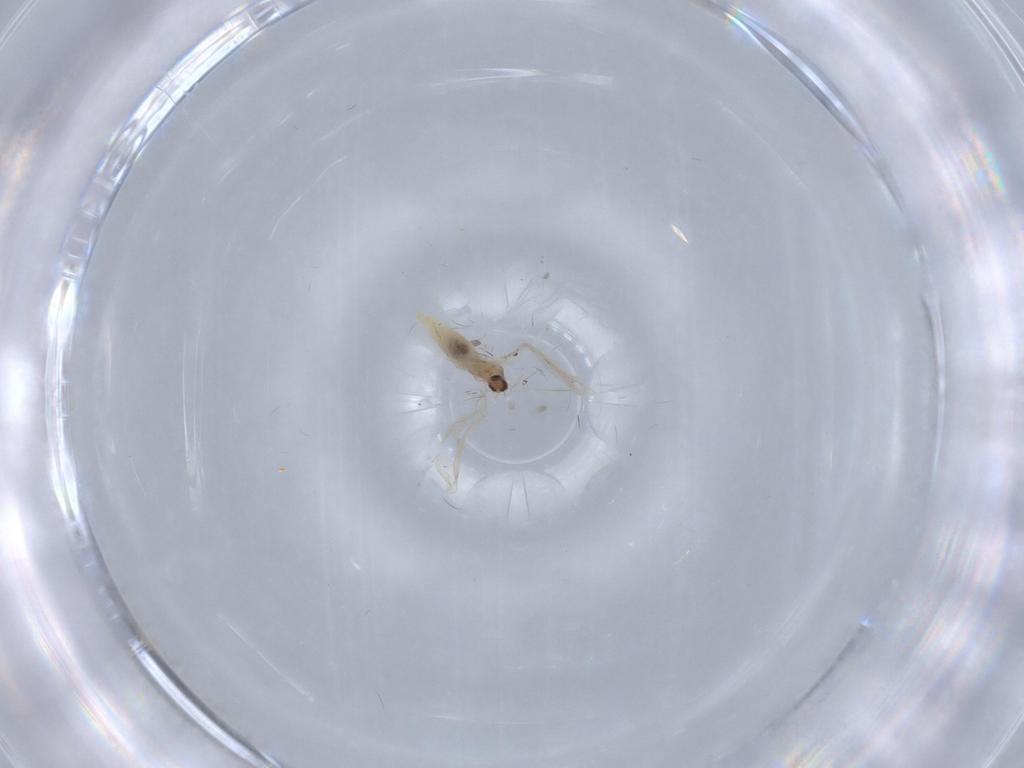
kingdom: Animalia
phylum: Arthropoda
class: Insecta
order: Diptera
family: Cecidomyiidae
